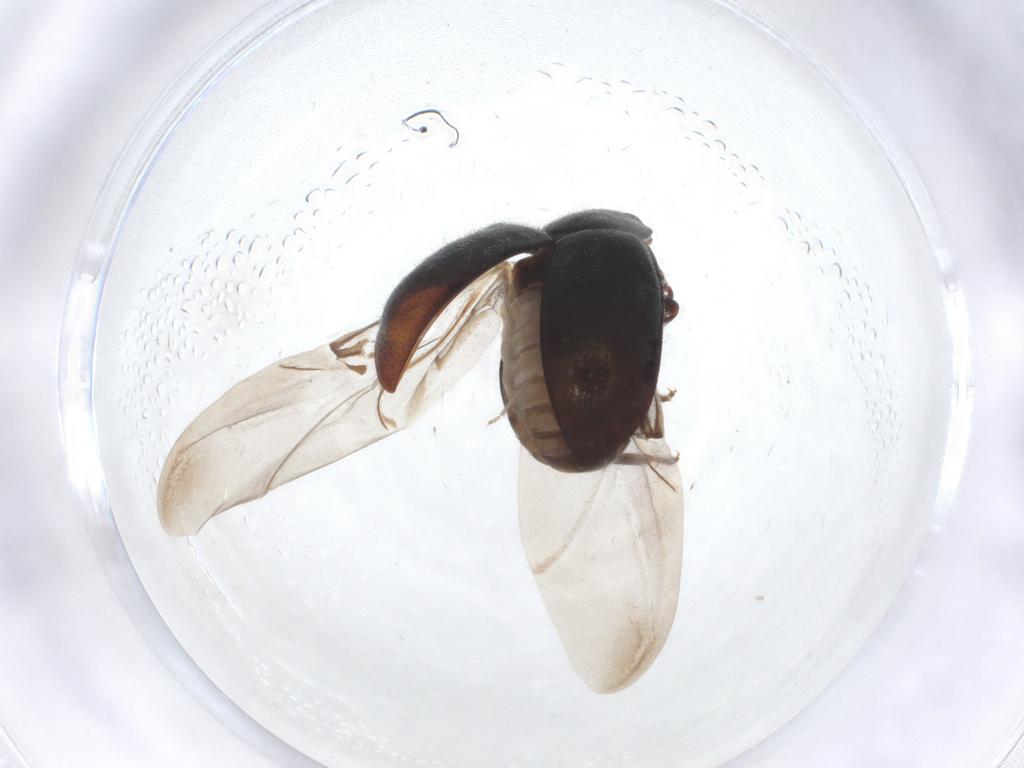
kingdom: Animalia
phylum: Arthropoda
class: Insecta
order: Coleoptera
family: Coccinellidae
